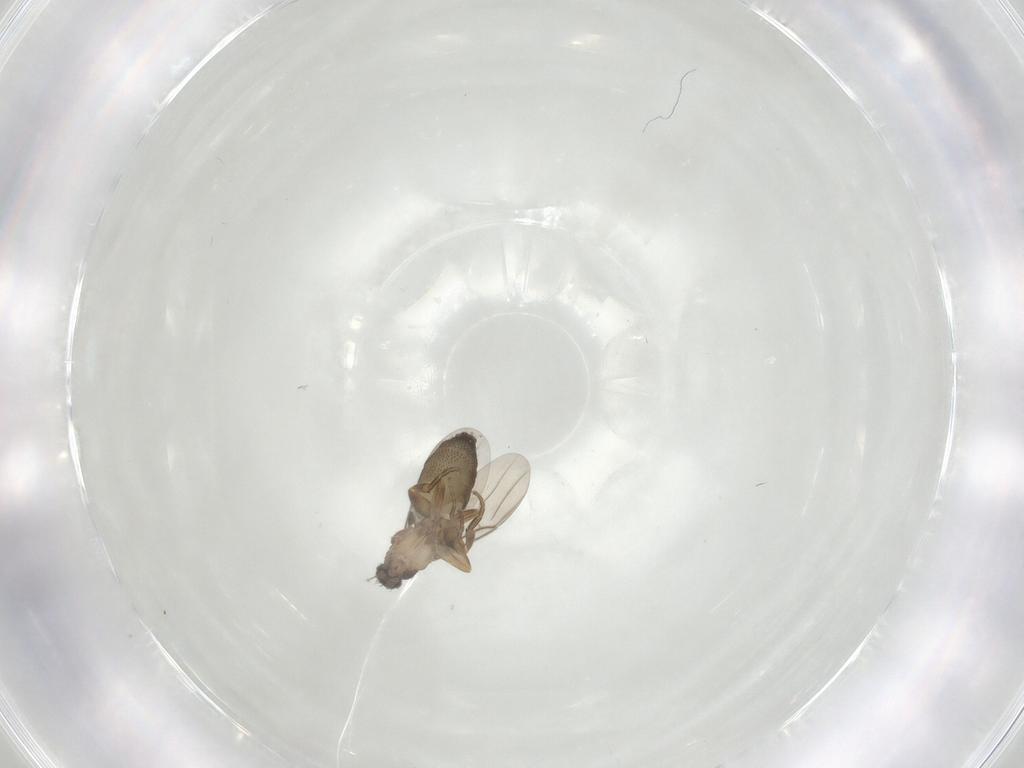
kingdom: Animalia
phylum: Arthropoda
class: Insecta
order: Diptera
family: Chironomidae
